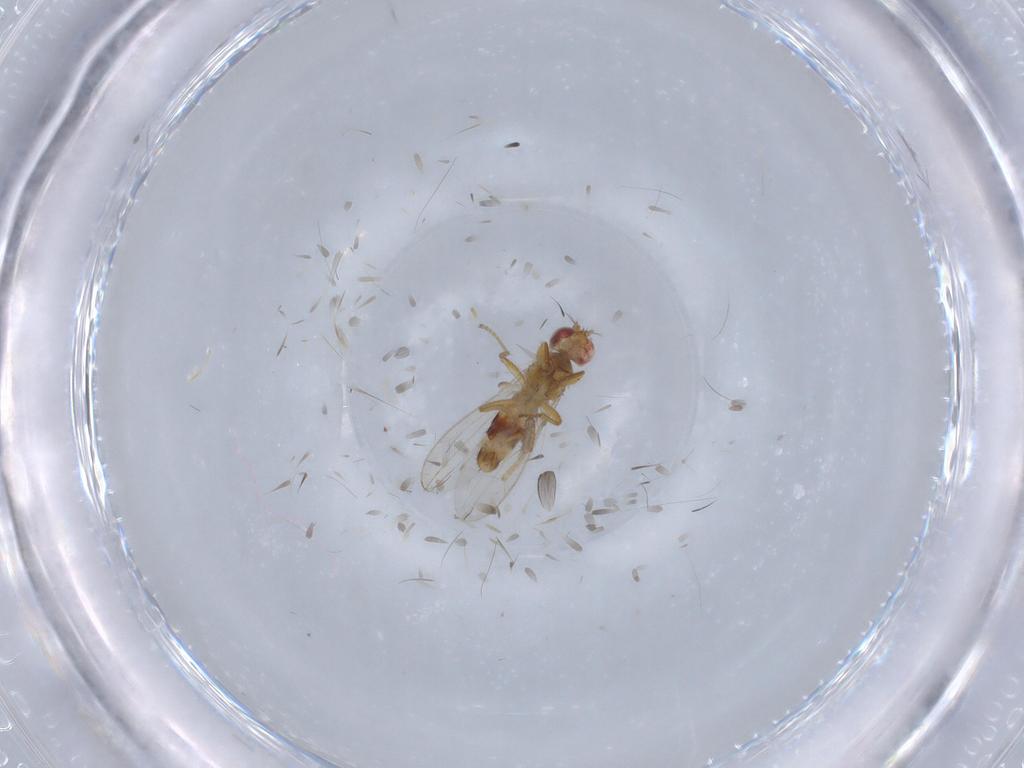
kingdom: Animalia
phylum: Arthropoda
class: Insecta
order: Diptera
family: Periscelididae
